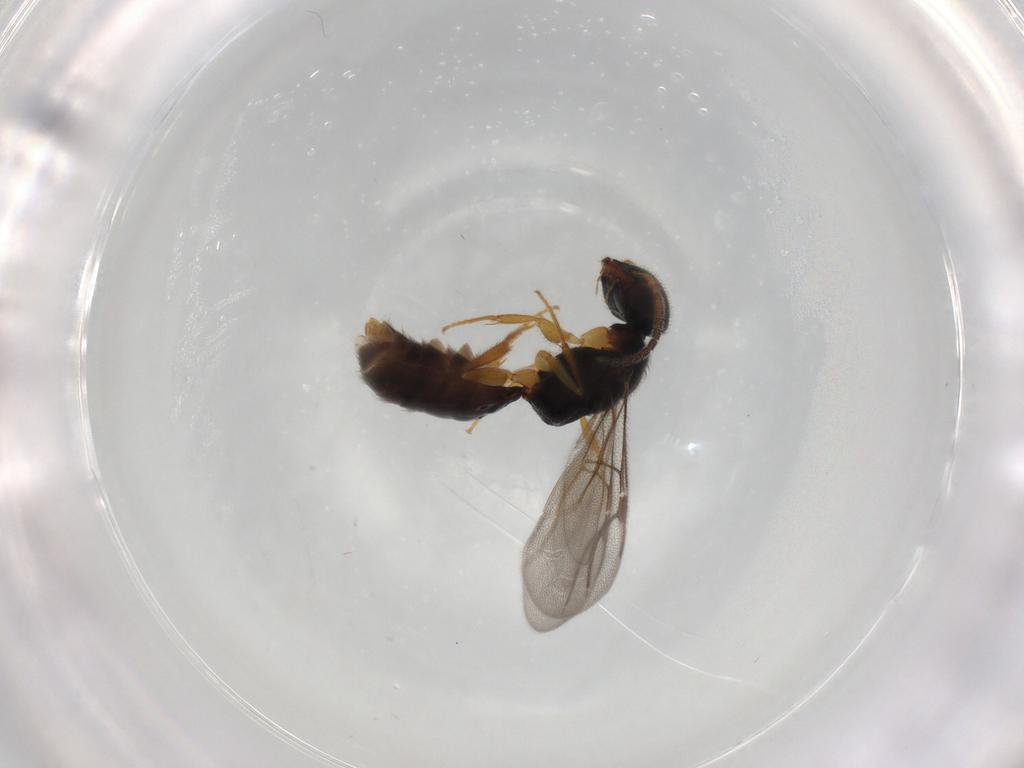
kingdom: Animalia
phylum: Arthropoda
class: Insecta
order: Hymenoptera
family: Bethylidae
